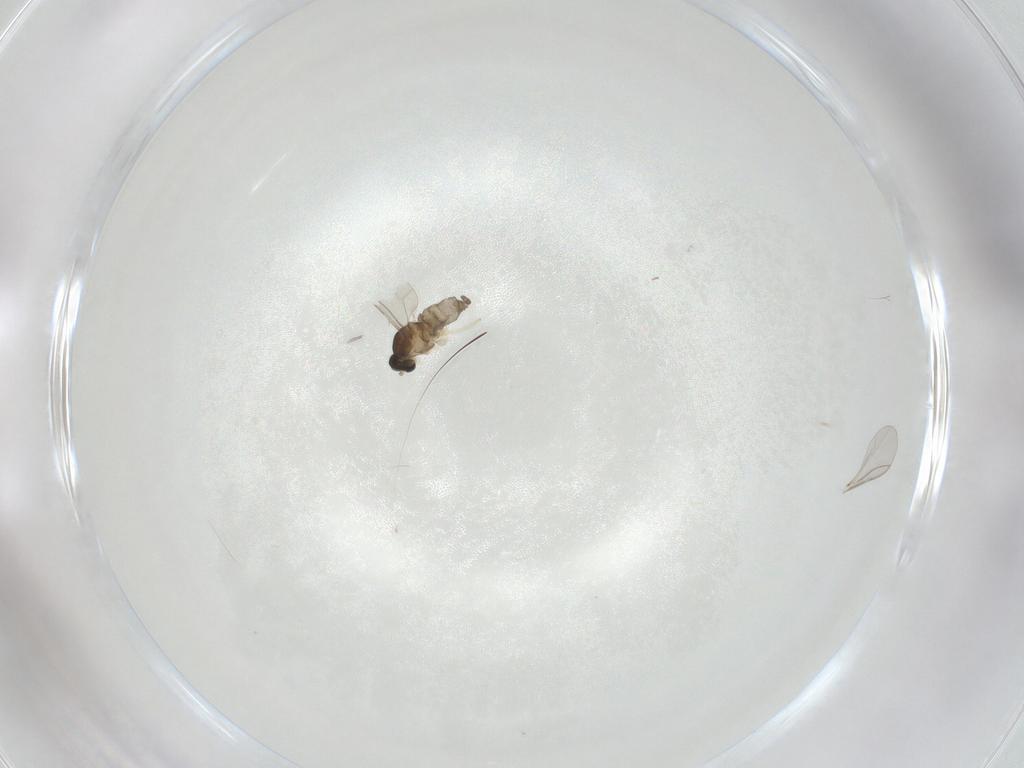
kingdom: Animalia
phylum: Arthropoda
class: Insecta
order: Diptera
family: Cecidomyiidae
